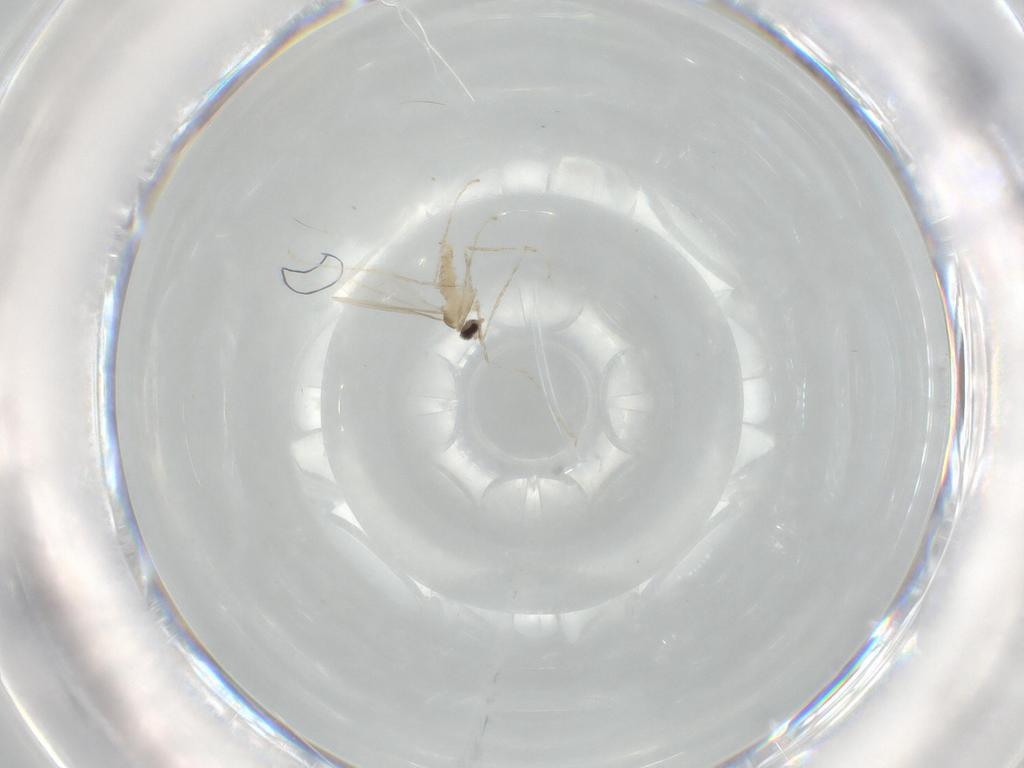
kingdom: Animalia
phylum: Arthropoda
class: Insecta
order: Diptera
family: Cecidomyiidae
